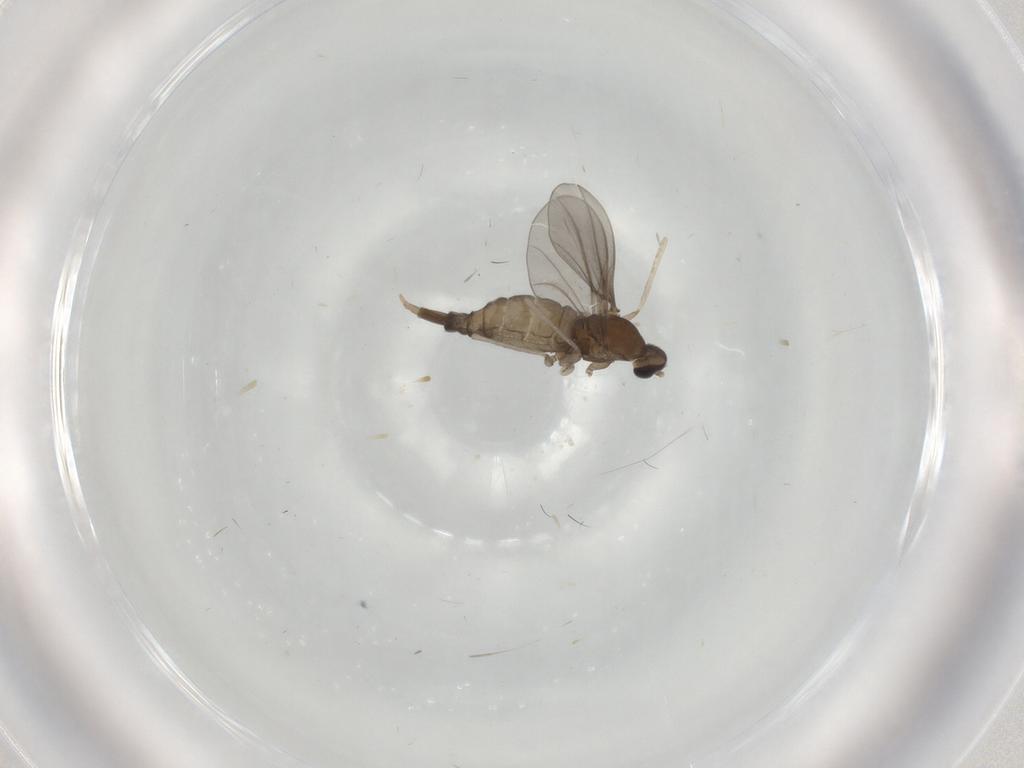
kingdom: Animalia
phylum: Arthropoda
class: Insecta
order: Diptera
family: Cecidomyiidae
